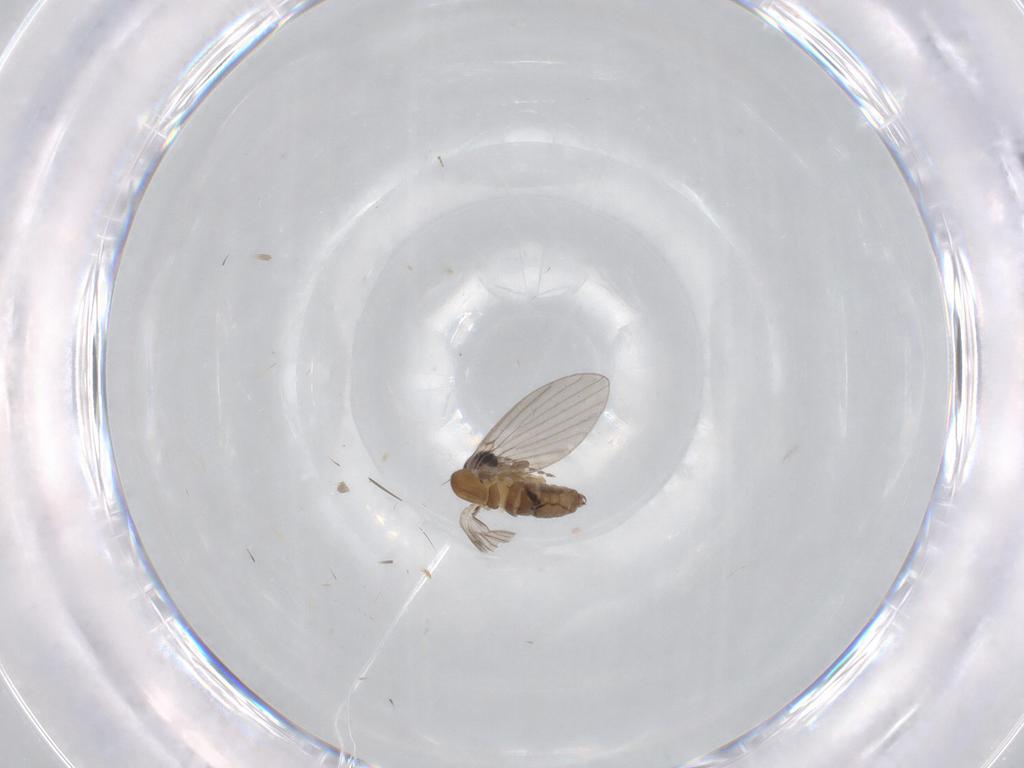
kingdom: Animalia
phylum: Arthropoda
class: Insecta
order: Diptera
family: Chironomidae
